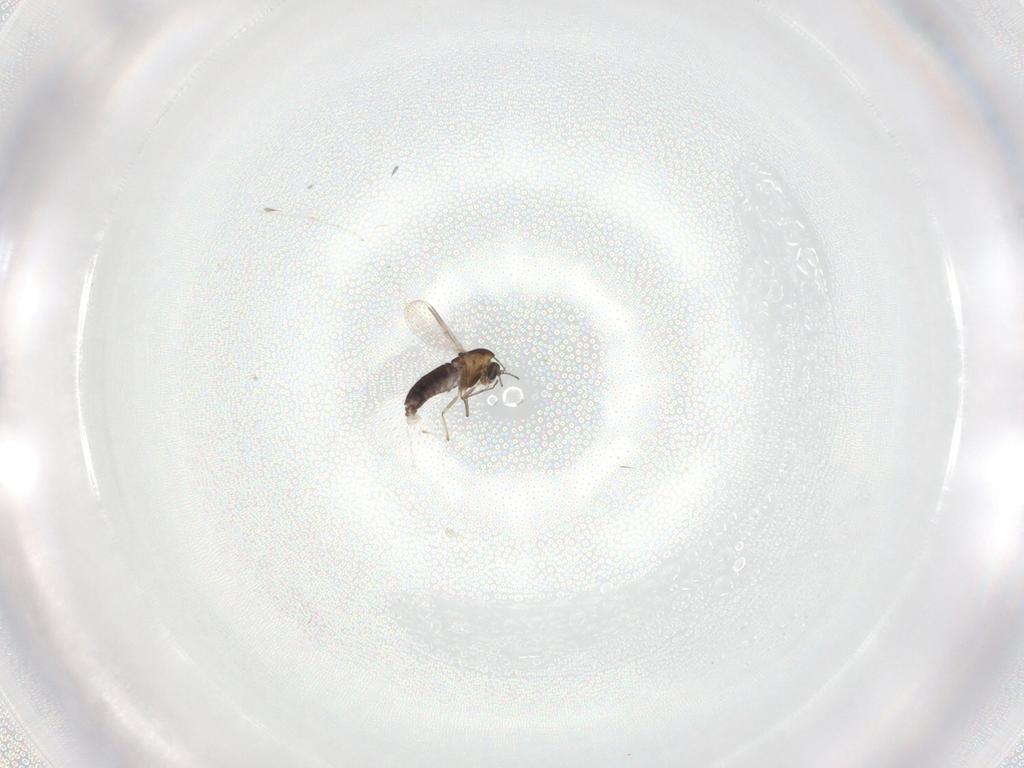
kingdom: Animalia
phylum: Arthropoda
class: Insecta
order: Diptera
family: Chironomidae
